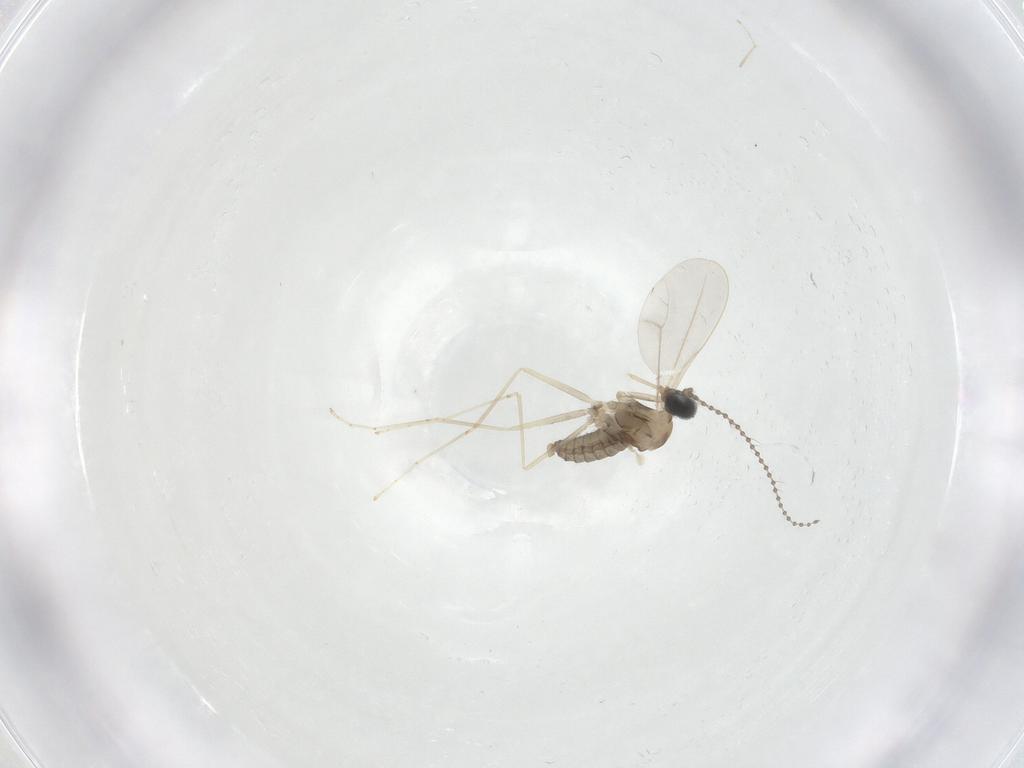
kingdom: Animalia
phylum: Arthropoda
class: Insecta
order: Diptera
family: Cecidomyiidae
